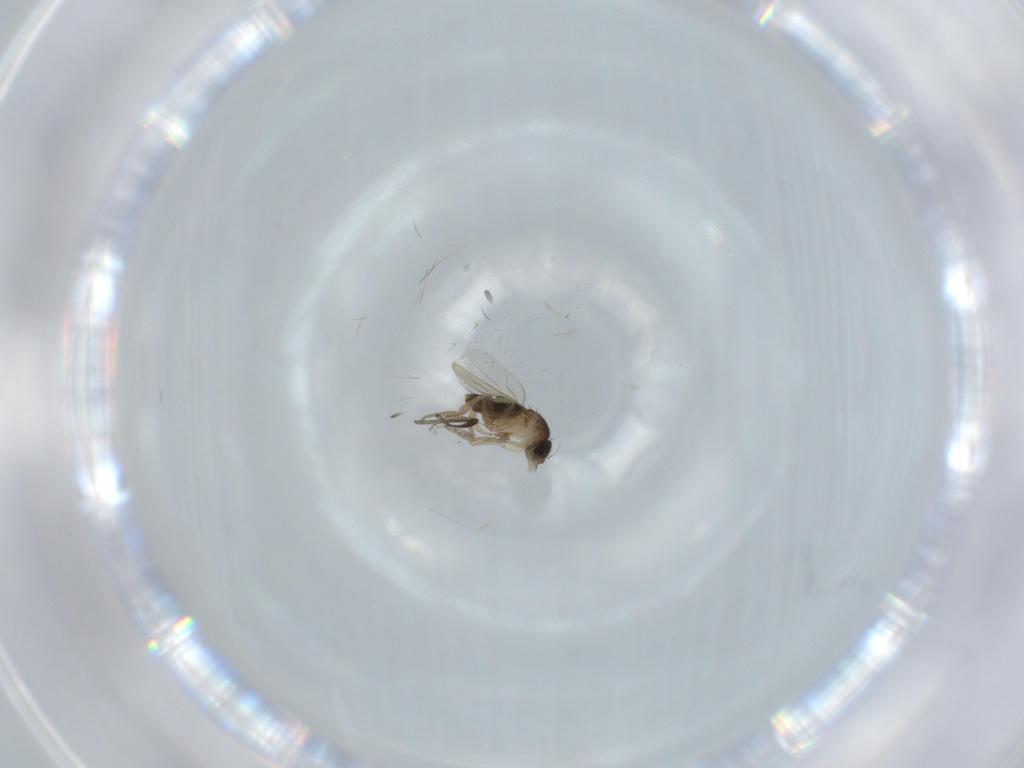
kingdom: Animalia
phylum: Arthropoda
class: Insecta
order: Diptera
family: Phoridae
